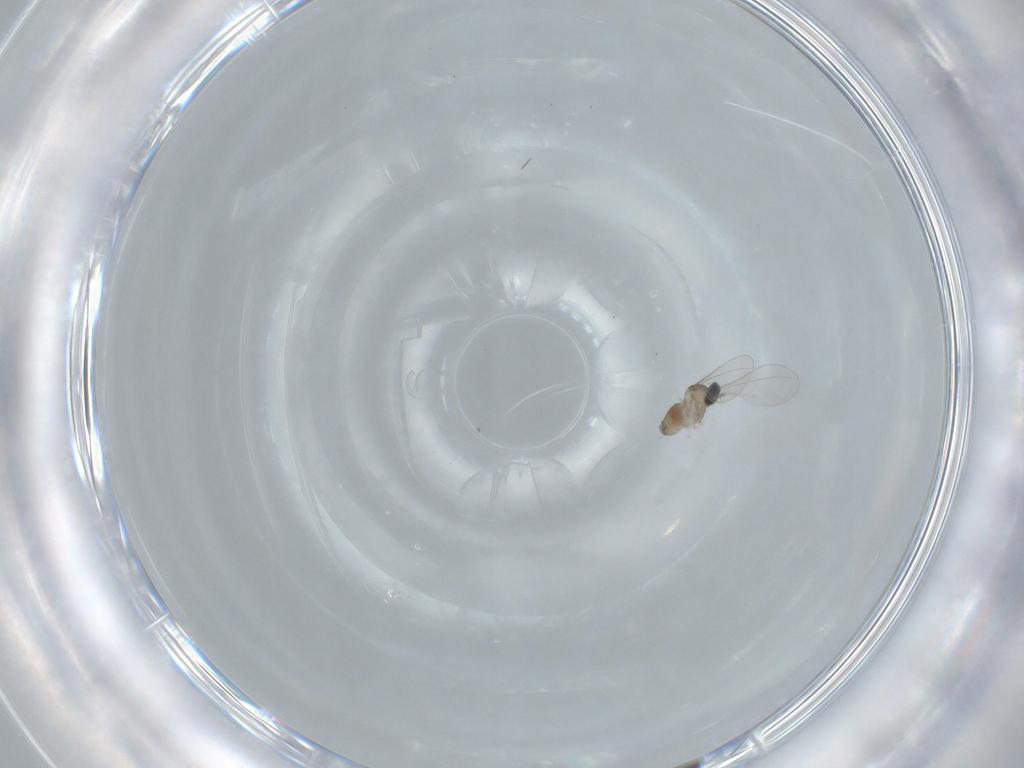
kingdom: Animalia
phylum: Arthropoda
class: Insecta
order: Diptera
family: Cecidomyiidae
